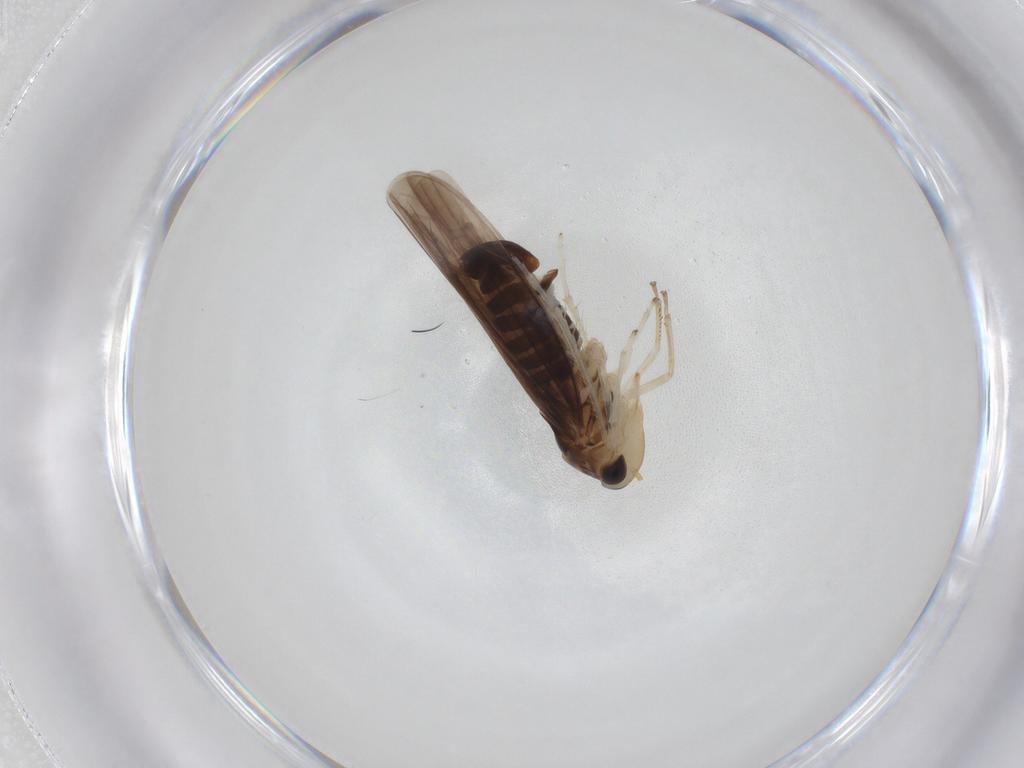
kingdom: Animalia
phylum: Arthropoda
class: Insecta
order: Hemiptera
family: Cicadellidae
